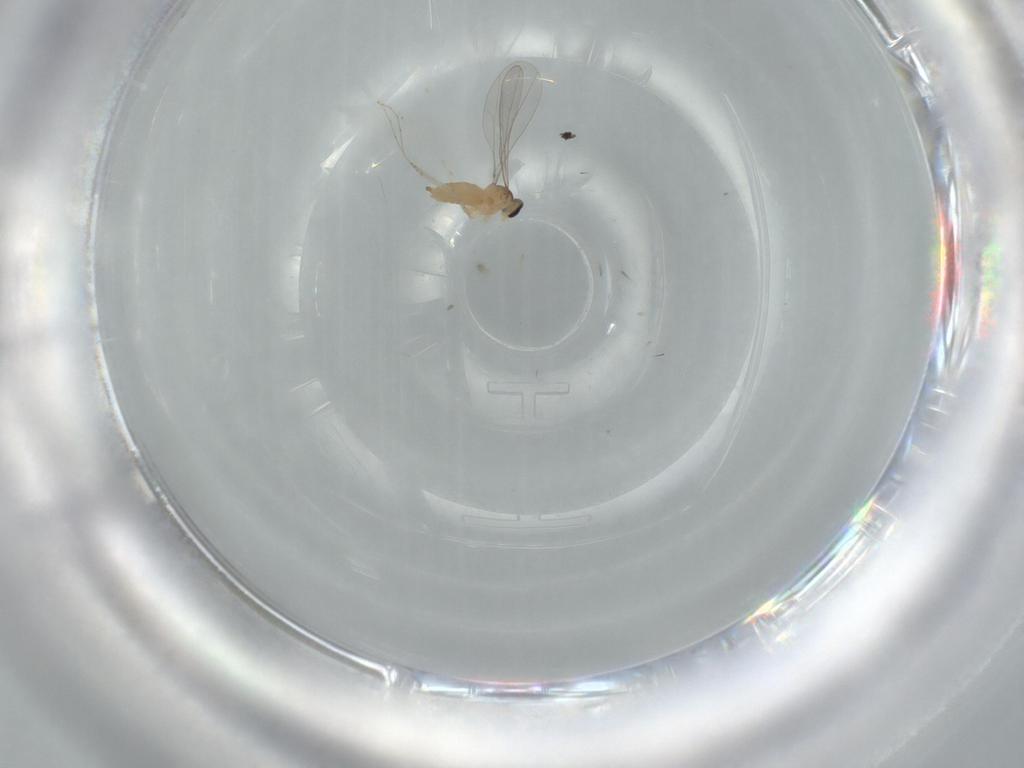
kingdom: Animalia
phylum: Arthropoda
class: Insecta
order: Diptera
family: Cecidomyiidae
